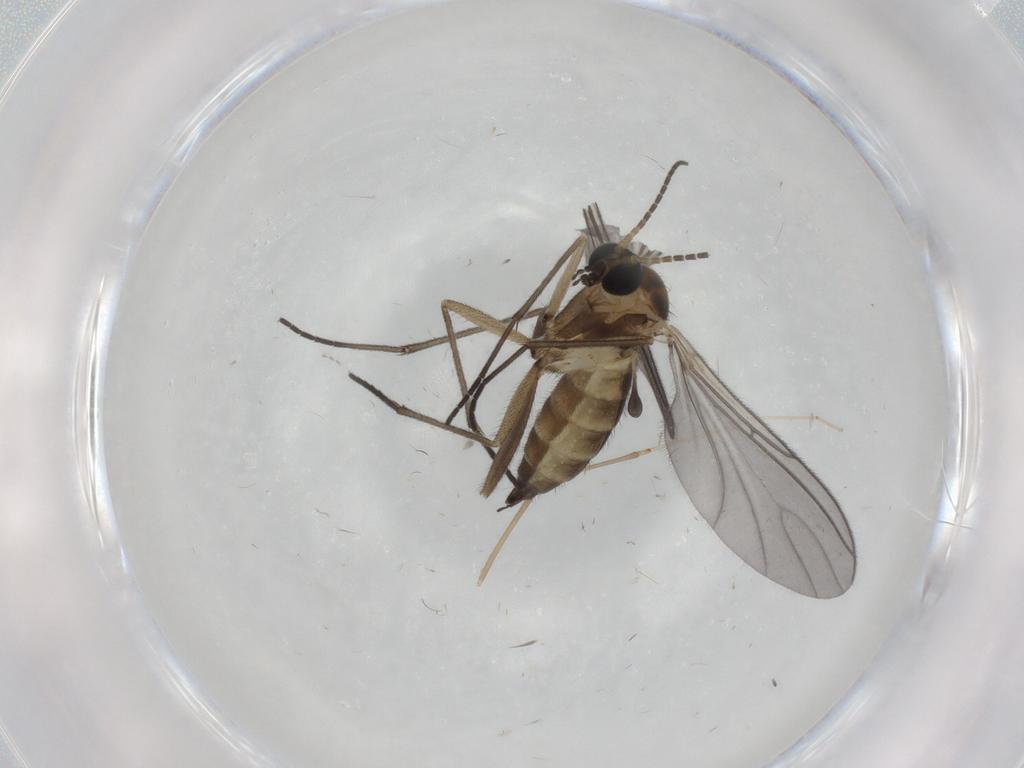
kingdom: Animalia
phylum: Arthropoda
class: Insecta
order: Diptera
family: Sciaridae
